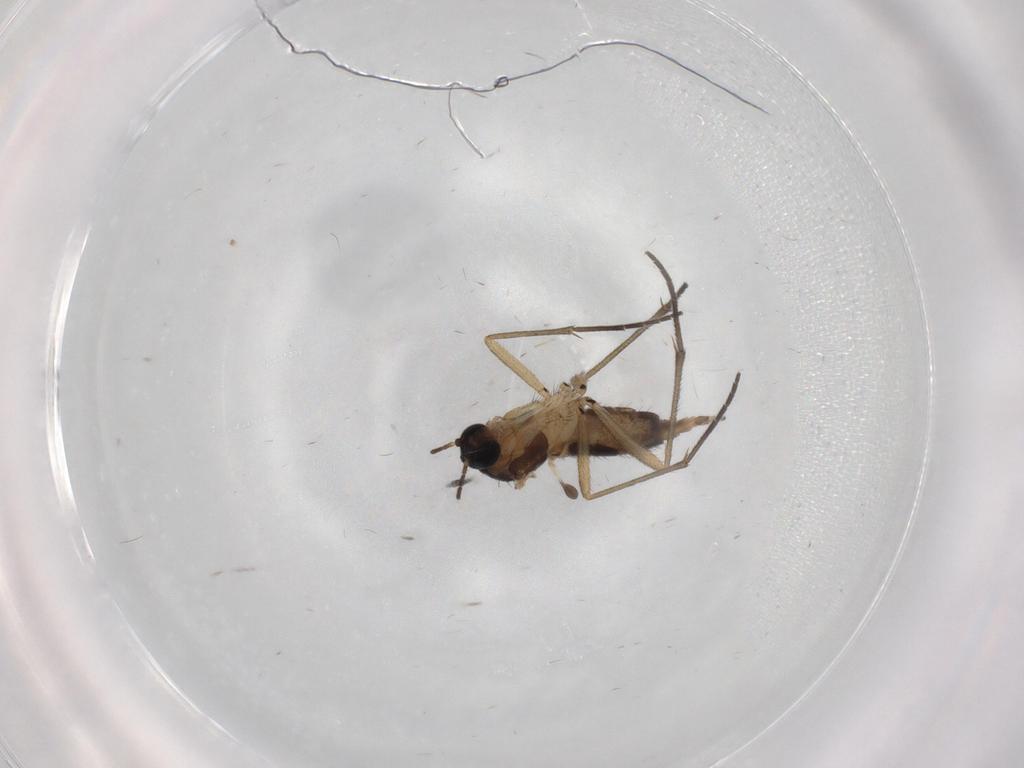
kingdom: Animalia
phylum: Arthropoda
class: Insecta
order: Diptera
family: Sciaridae
